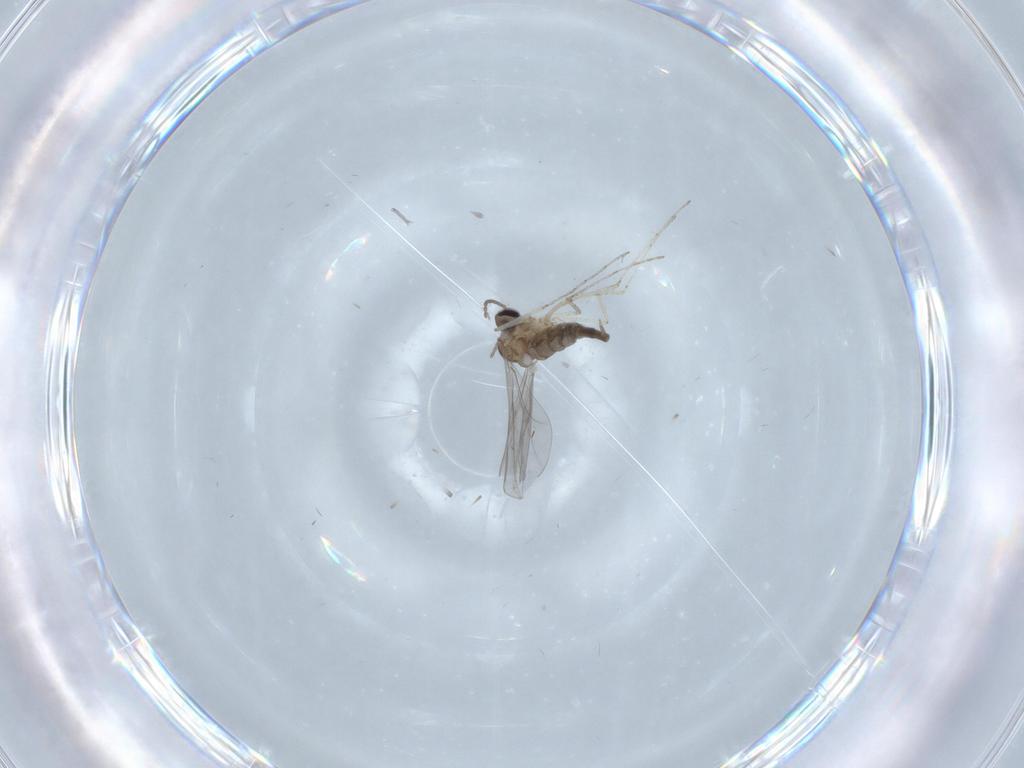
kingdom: Animalia
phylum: Arthropoda
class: Insecta
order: Diptera
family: Cecidomyiidae
